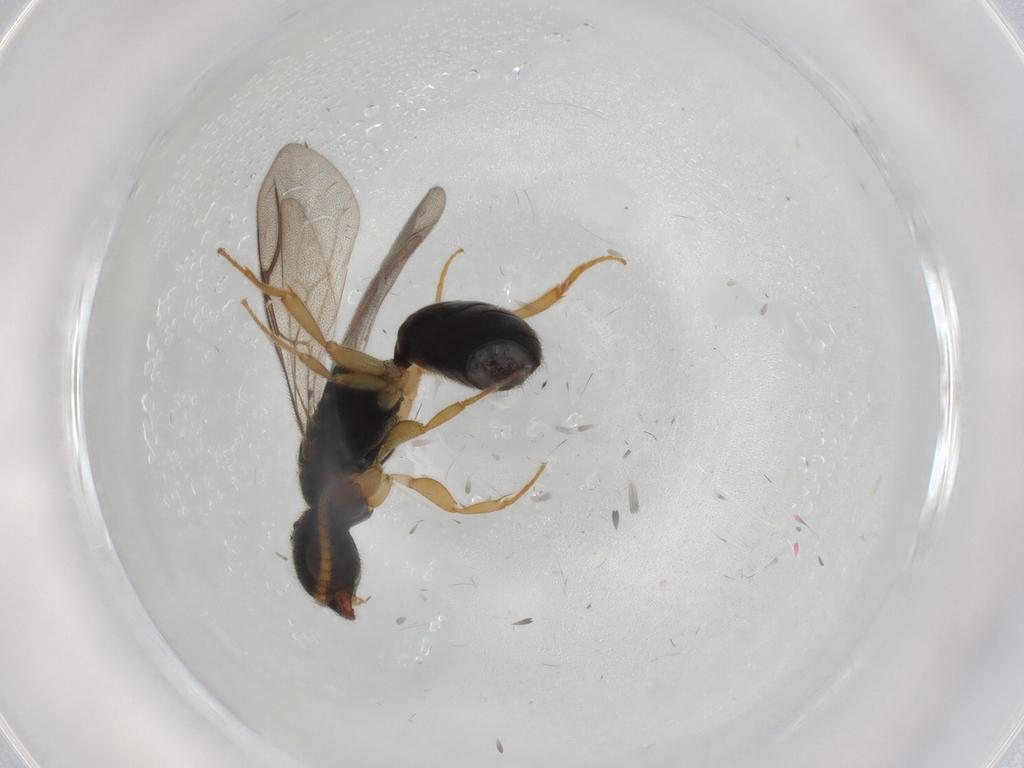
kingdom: Animalia
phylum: Arthropoda
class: Insecta
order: Hymenoptera
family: Bethylidae
